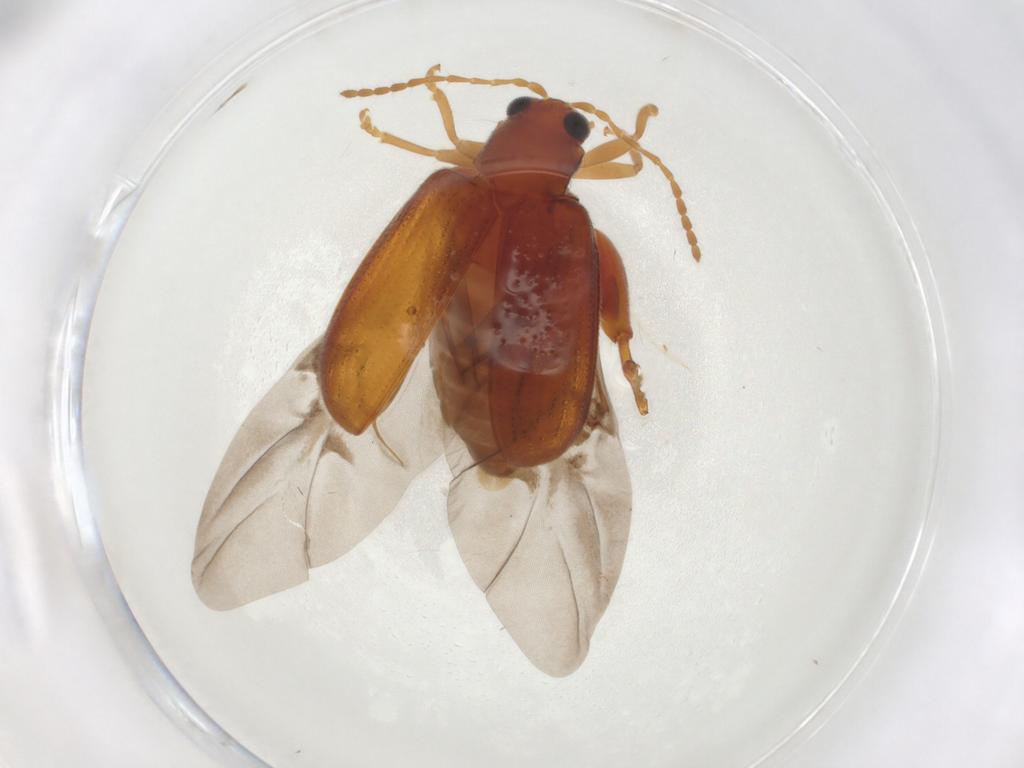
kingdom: Animalia
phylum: Arthropoda
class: Insecta
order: Coleoptera
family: Chrysomelidae
